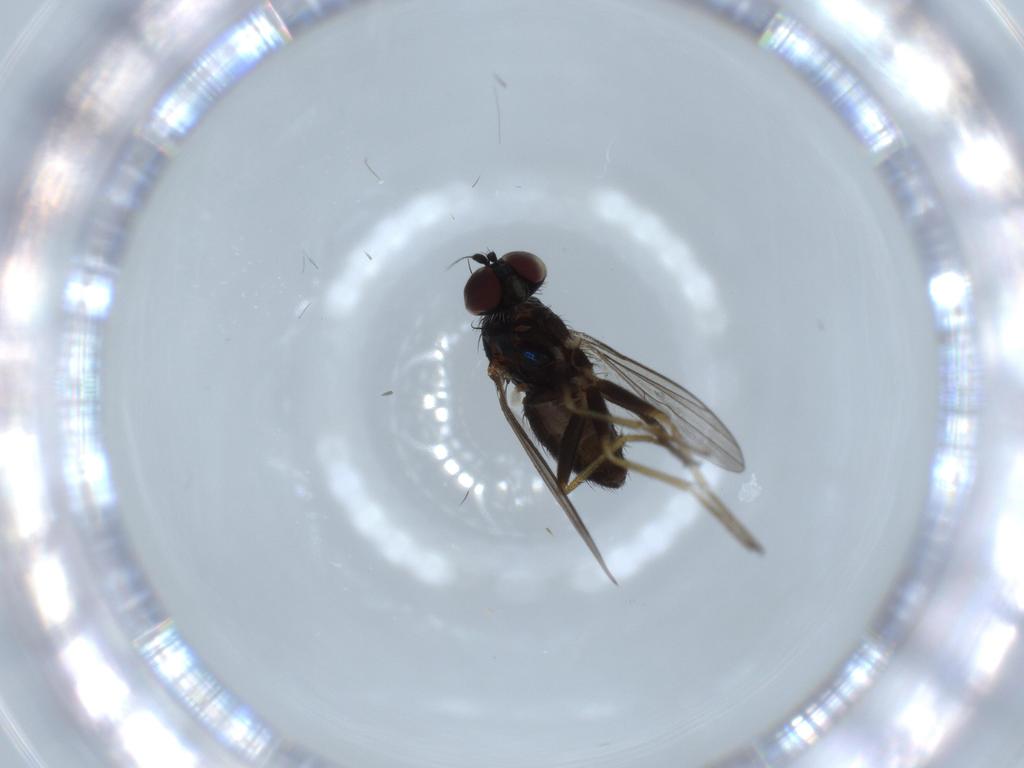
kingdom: Animalia
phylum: Arthropoda
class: Insecta
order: Diptera
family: Dolichopodidae
